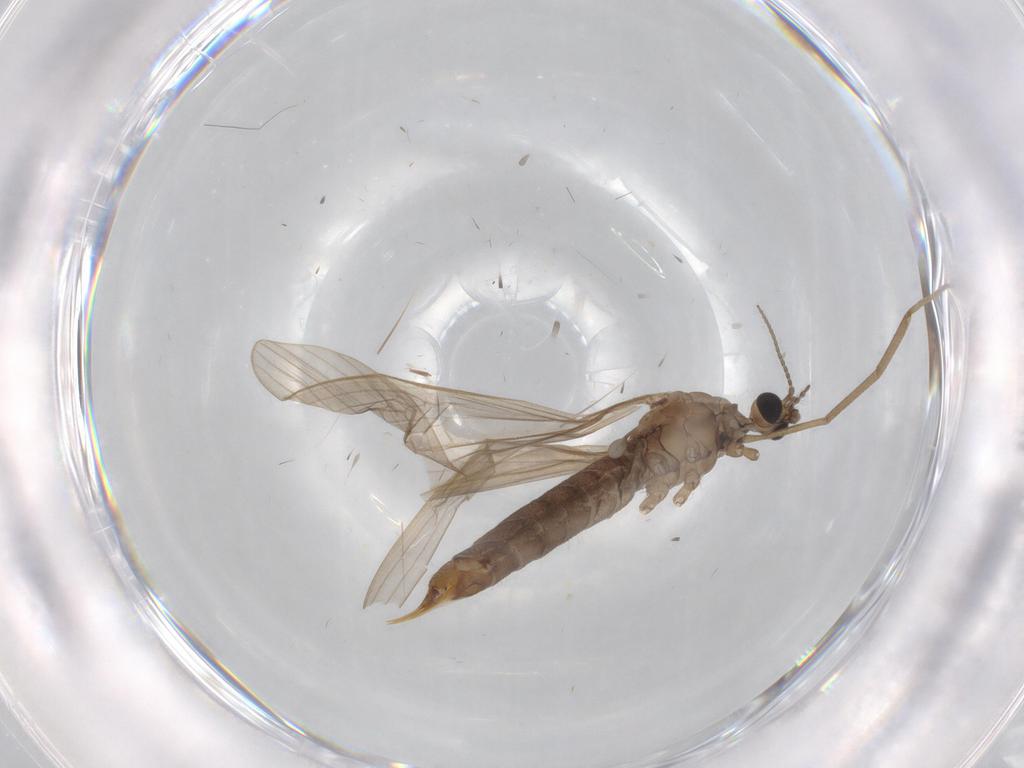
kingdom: Animalia
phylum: Arthropoda
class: Insecta
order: Diptera
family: Limoniidae
